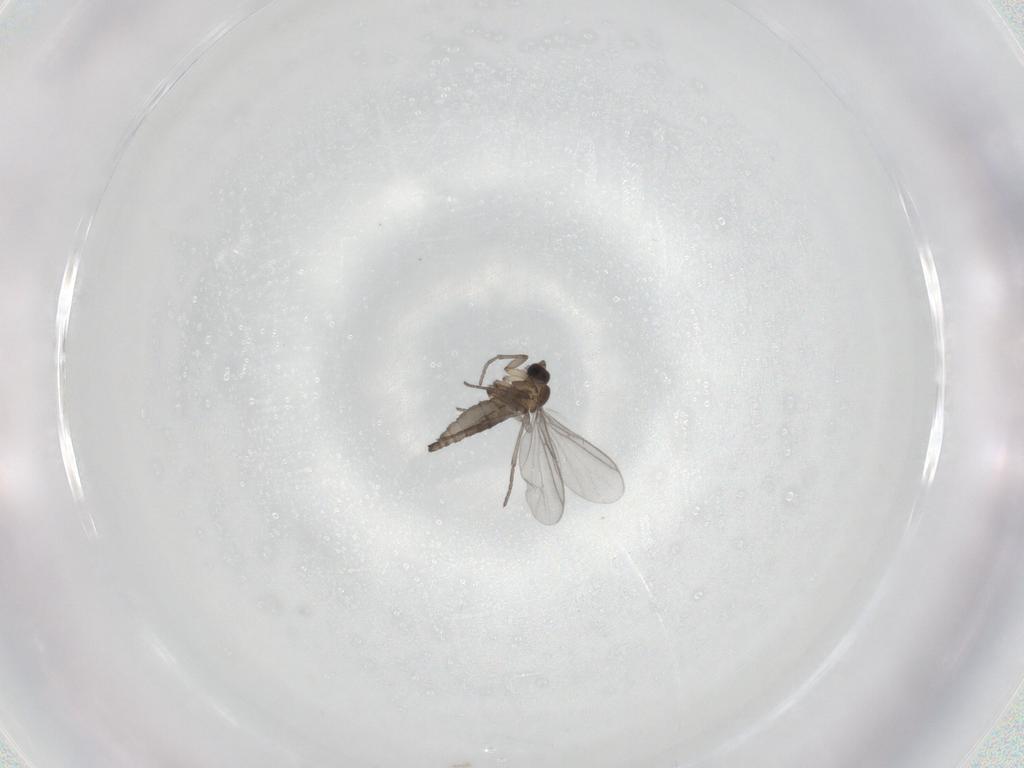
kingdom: Animalia
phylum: Arthropoda
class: Insecta
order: Diptera
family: Chironomidae
